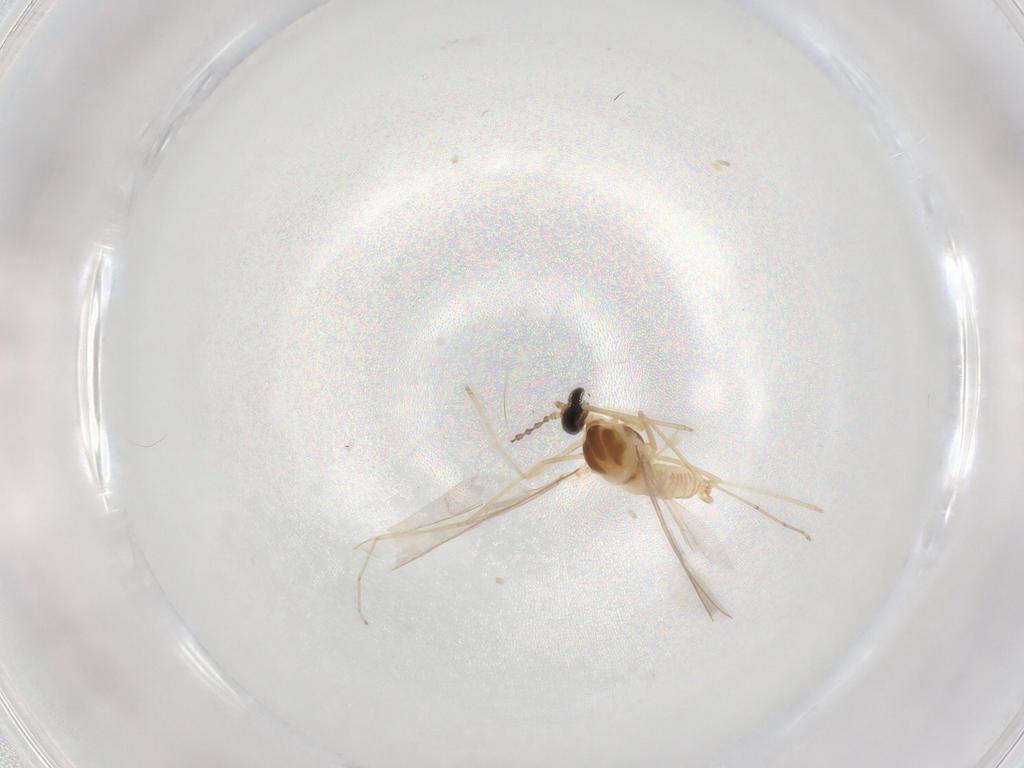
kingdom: Animalia
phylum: Arthropoda
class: Insecta
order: Diptera
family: Cecidomyiidae
